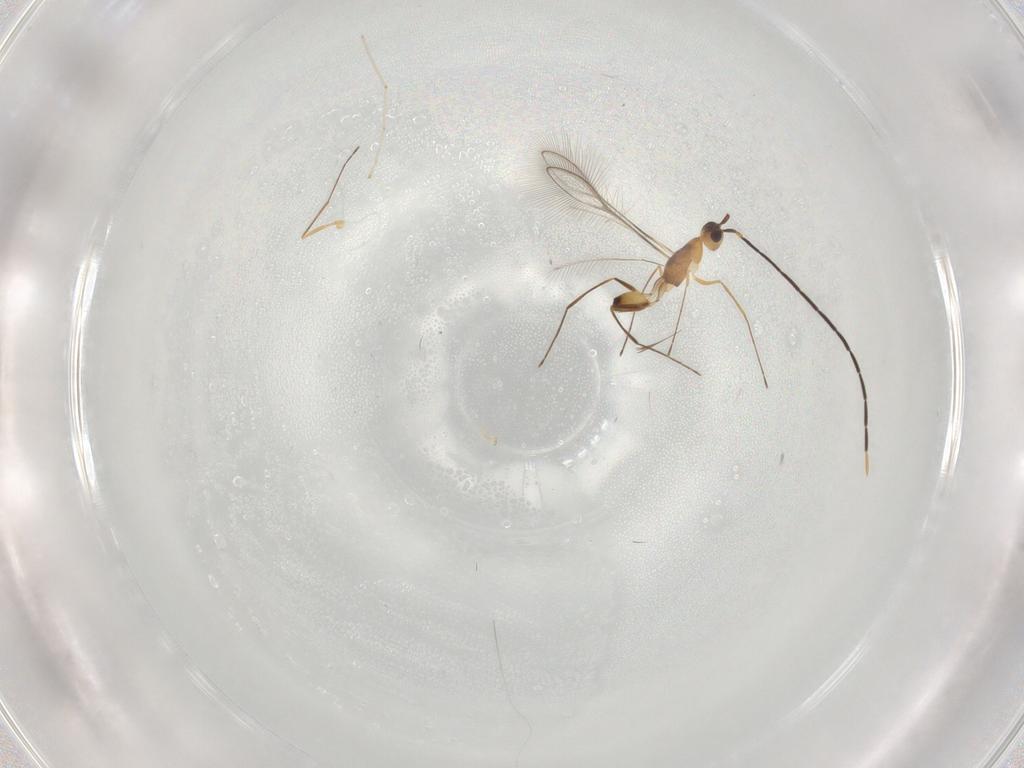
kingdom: Animalia
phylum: Arthropoda
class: Insecta
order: Hymenoptera
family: Mymaridae
